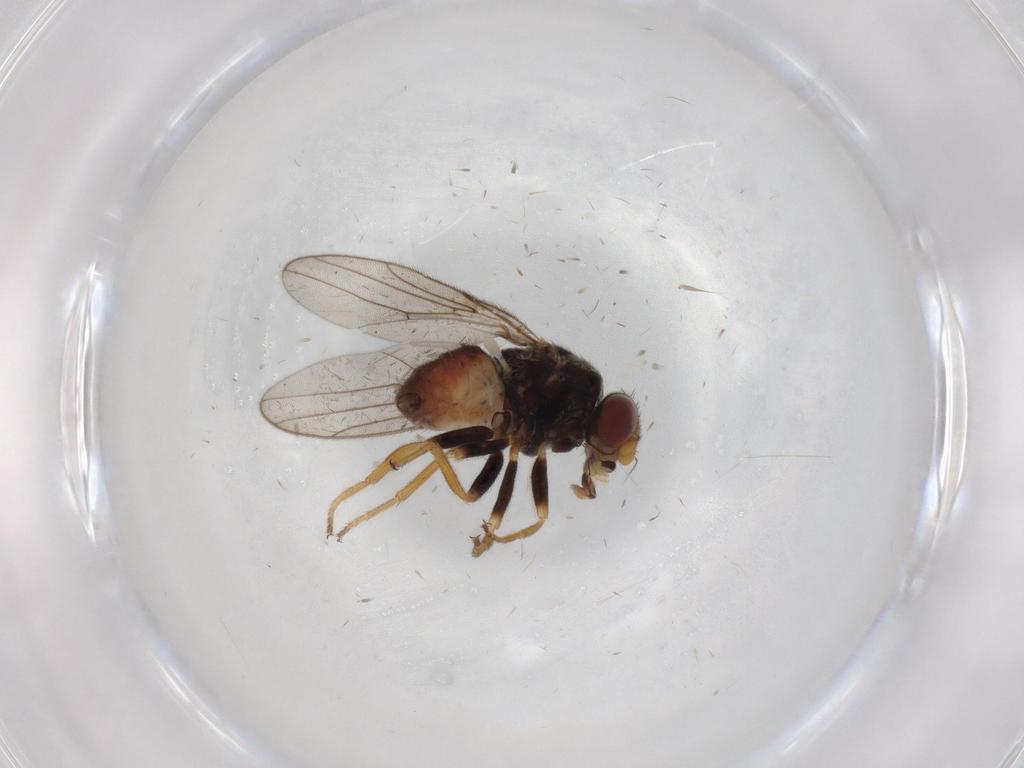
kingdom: Animalia
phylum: Arthropoda
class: Insecta
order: Diptera
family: Chloropidae
